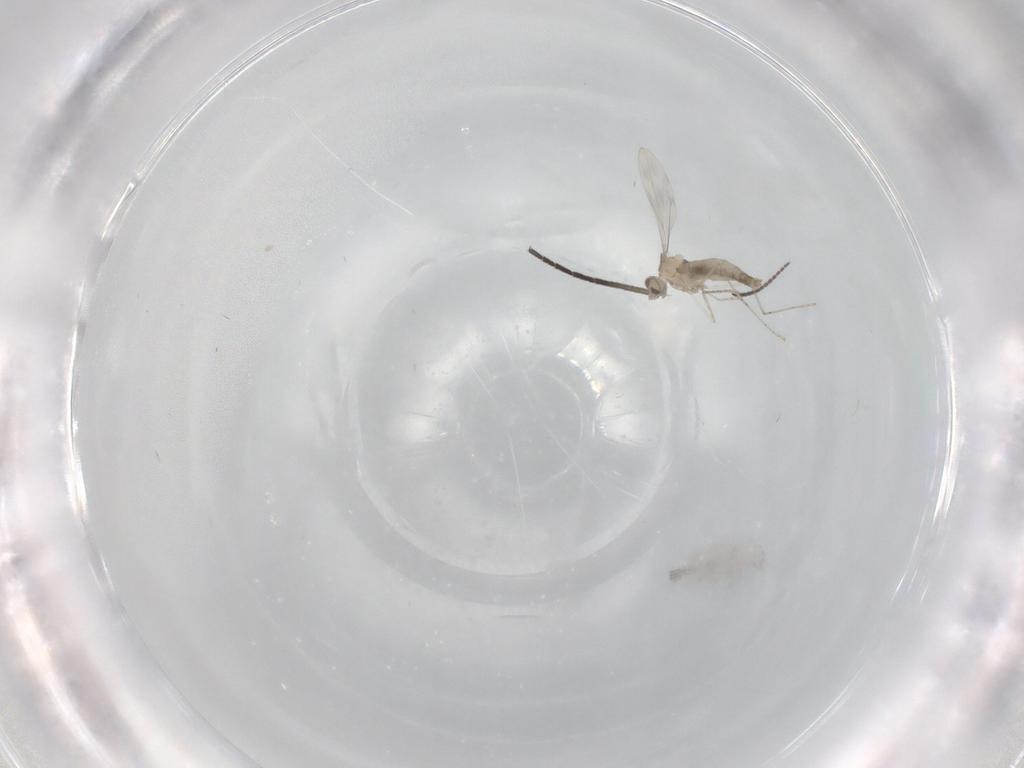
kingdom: Animalia
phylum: Arthropoda
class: Insecta
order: Diptera
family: Cecidomyiidae
